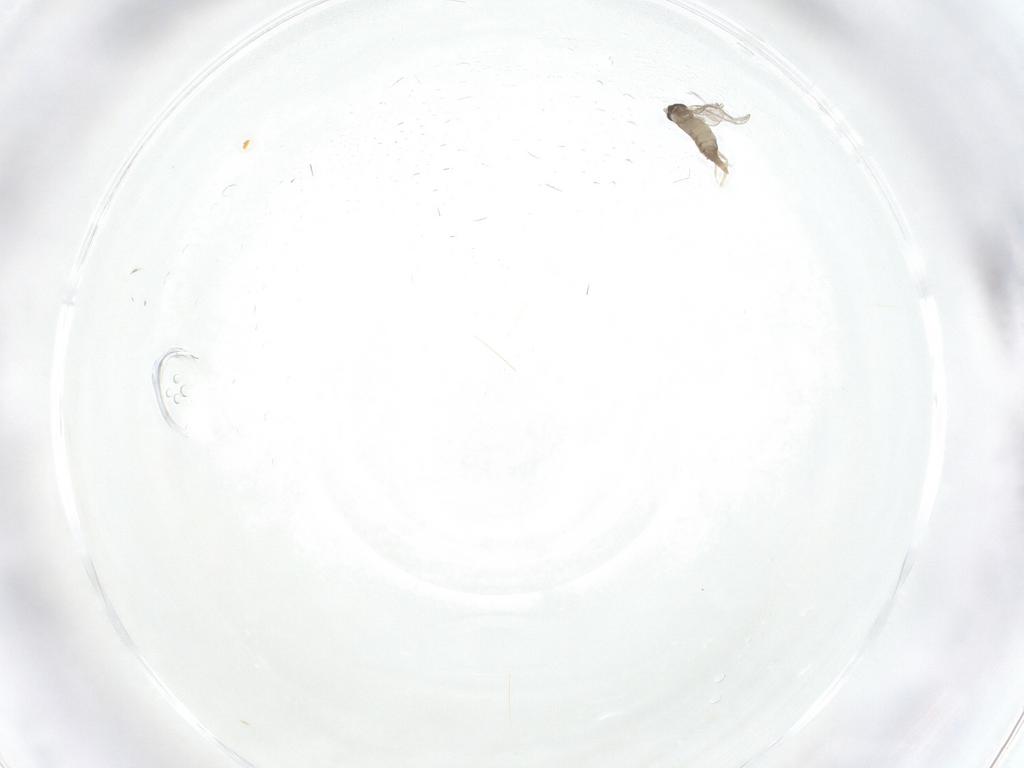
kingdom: Animalia
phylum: Arthropoda
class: Insecta
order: Diptera
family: Cecidomyiidae
